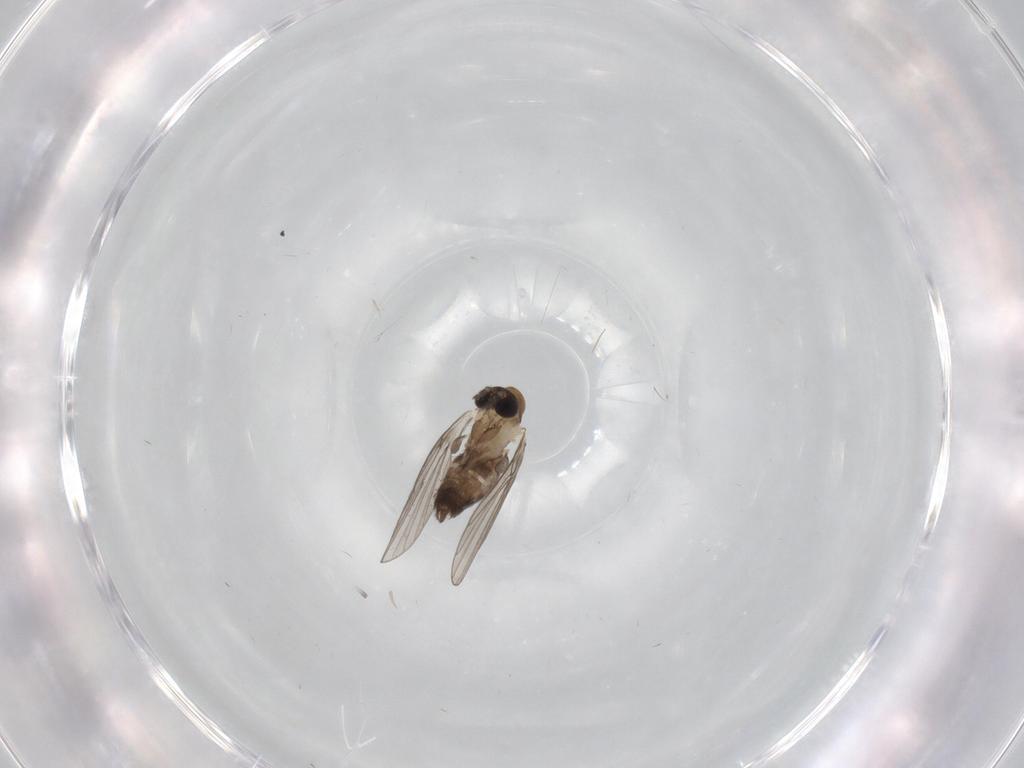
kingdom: Animalia
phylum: Arthropoda
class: Insecta
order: Diptera
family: Psychodidae
